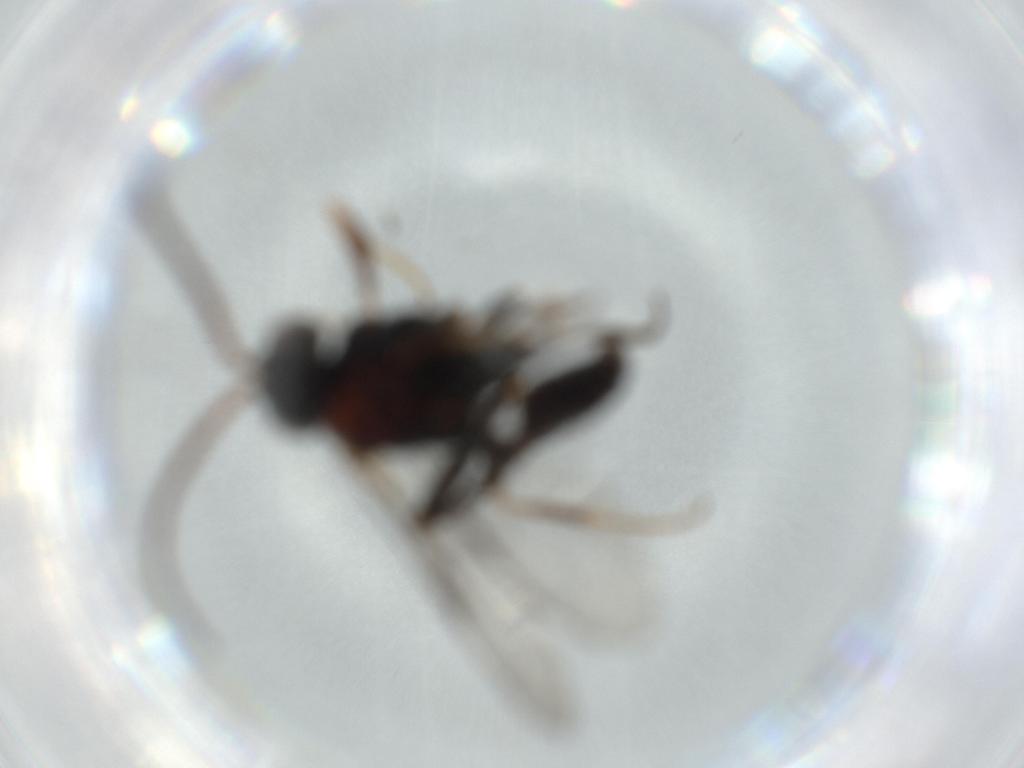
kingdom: Animalia
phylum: Arthropoda
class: Insecta
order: Hymenoptera
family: Evaniidae
